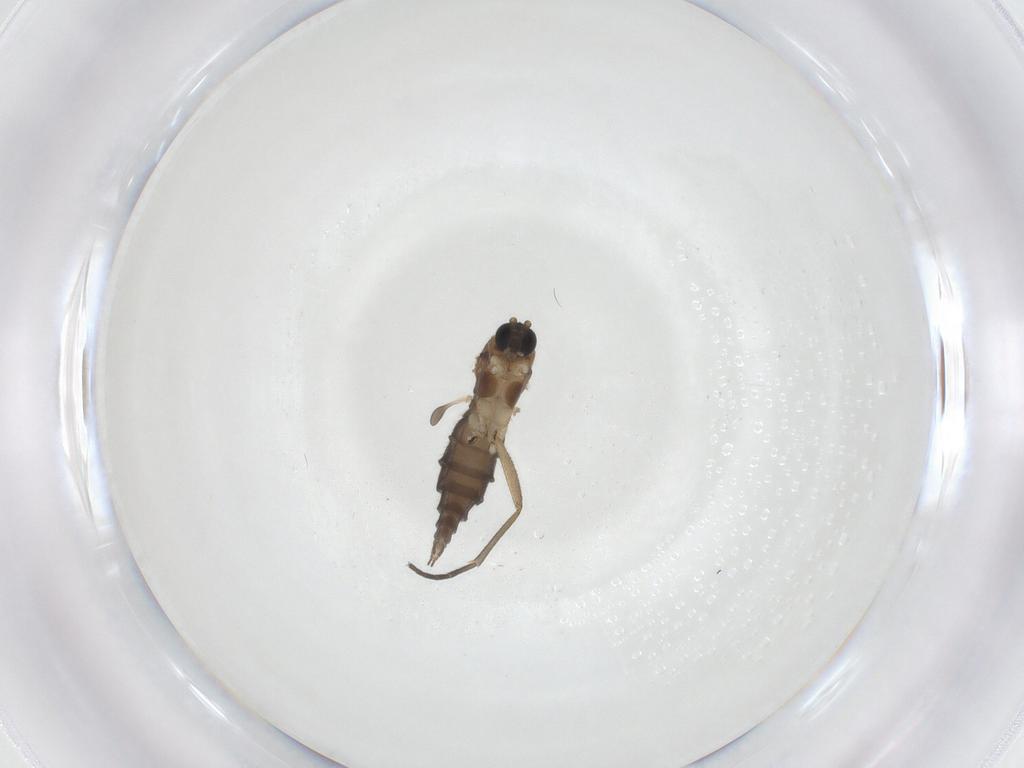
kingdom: Animalia
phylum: Arthropoda
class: Insecta
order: Diptera
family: Sciaridae
